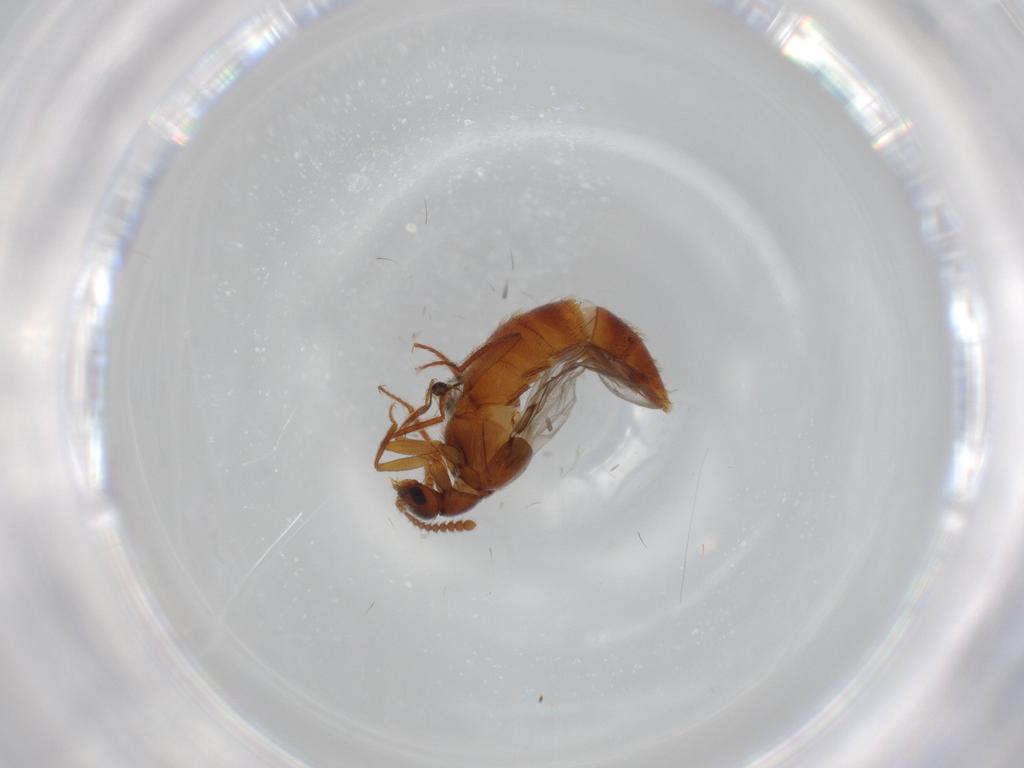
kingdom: Animalia
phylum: Arthropoda
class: Insecta
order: Coleoptera
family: Staphylinidae
